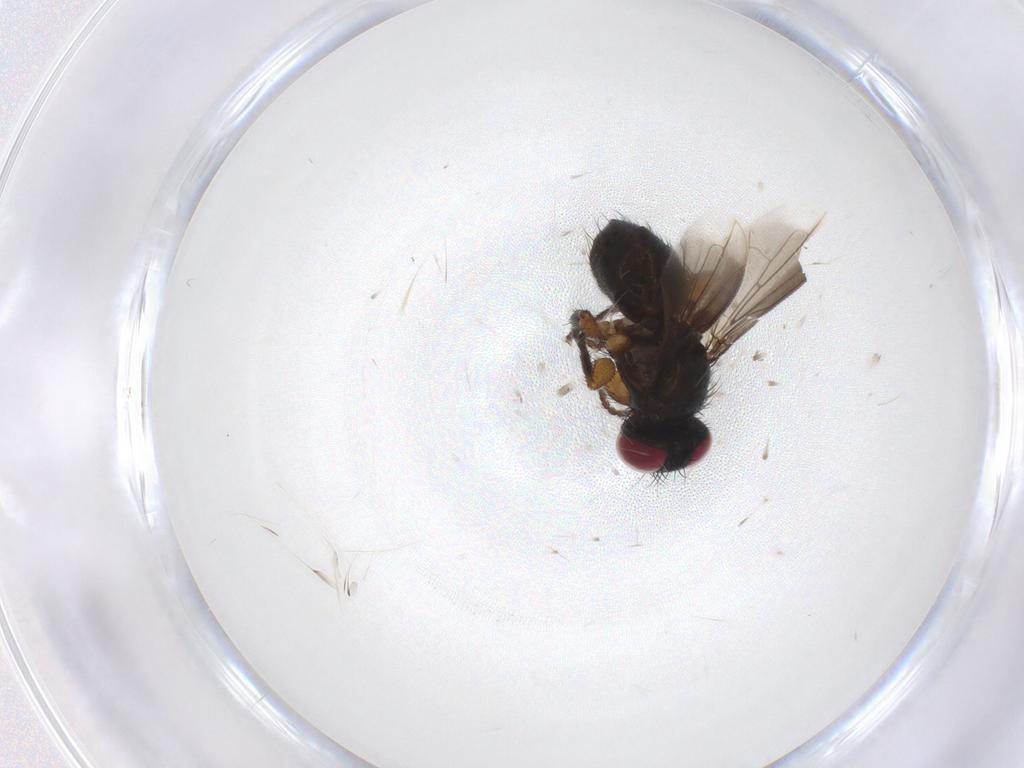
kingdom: Animalia
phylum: Arthropoda
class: Insecta
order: Diptera
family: Tachinidae
